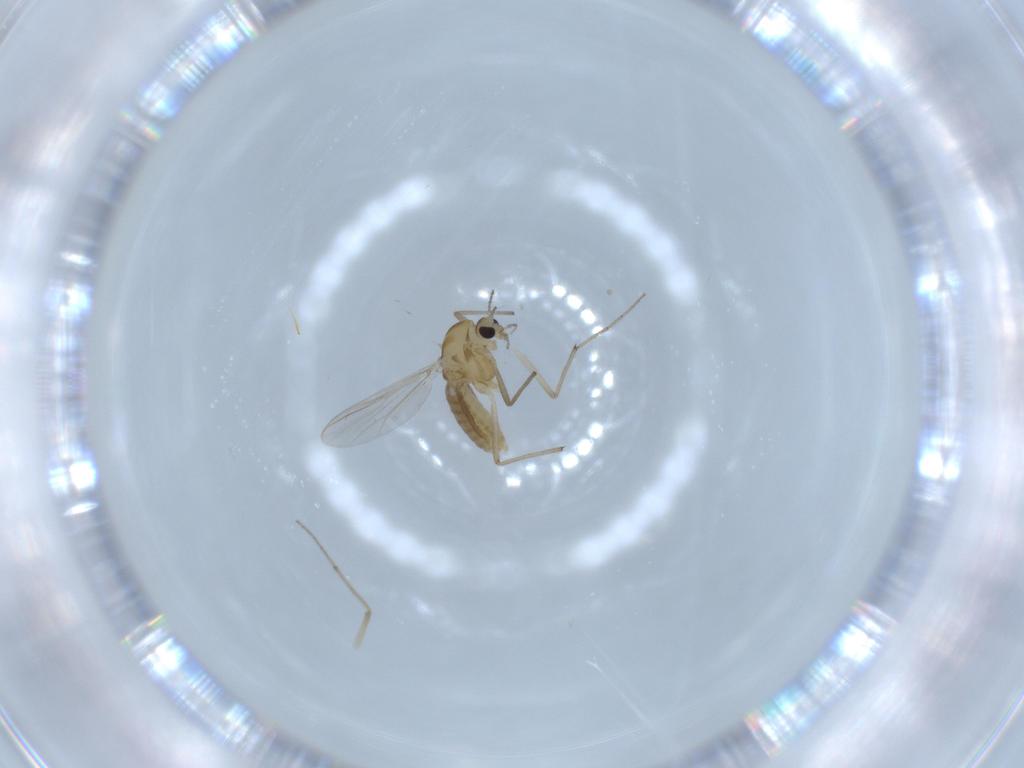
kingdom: Animalia
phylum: Arthropoda
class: Insecta
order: Diptera
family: Chironomidae
